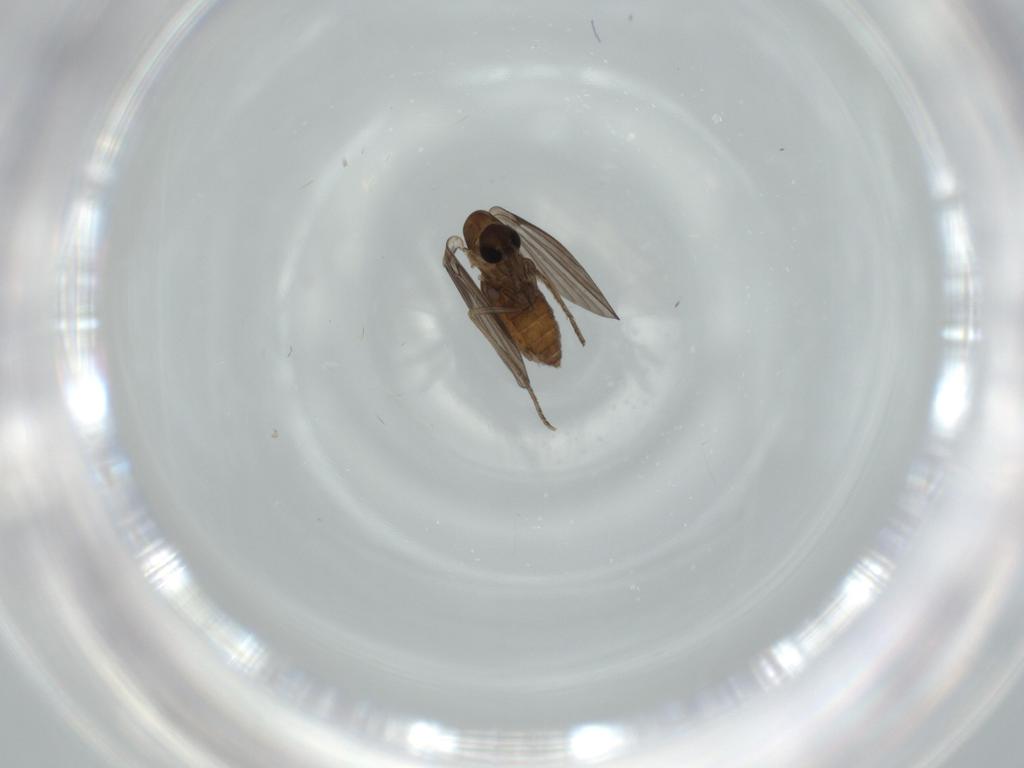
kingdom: Animalia
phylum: Arthropoda
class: Insecta
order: Diptera
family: Psychodidae
